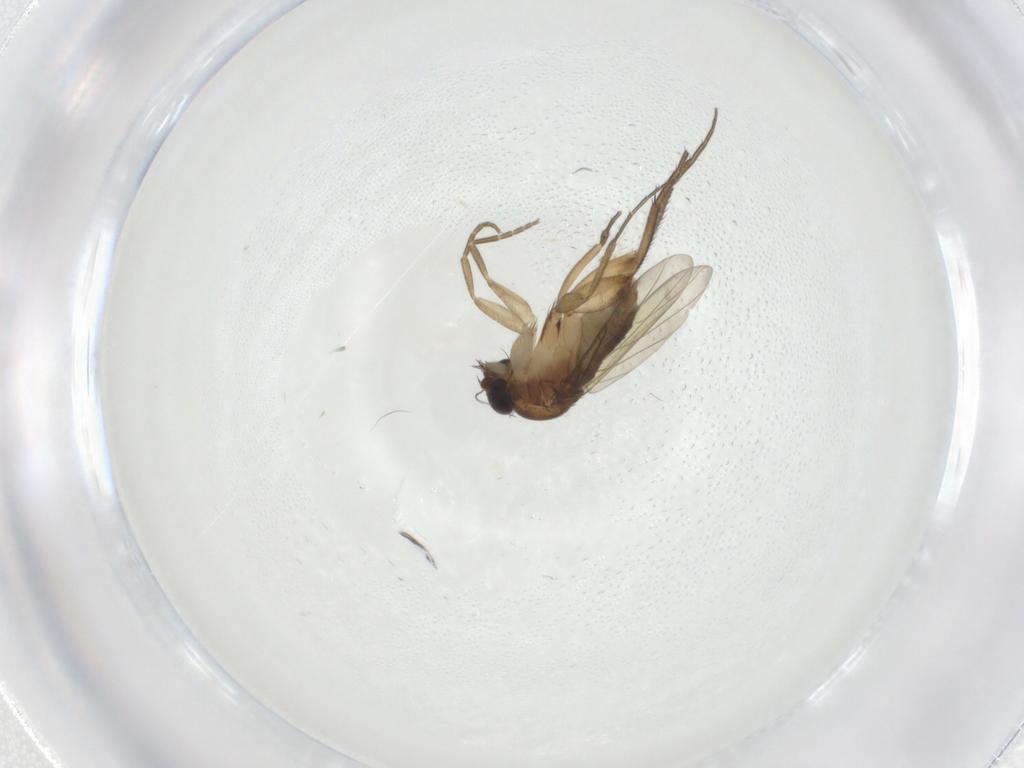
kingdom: Animalia
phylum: Arthropoda
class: Insecta
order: Diptera
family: Phoridae
